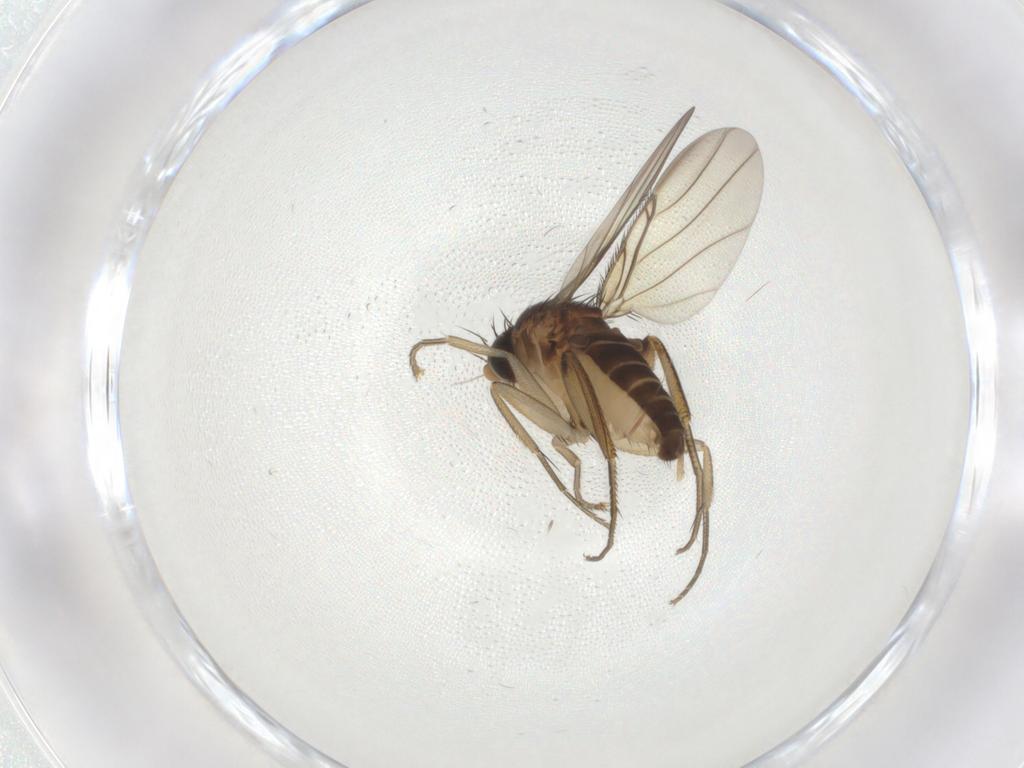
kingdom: Animalia
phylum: Arthropoda
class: Insecta
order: Diptera
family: Phoridae
